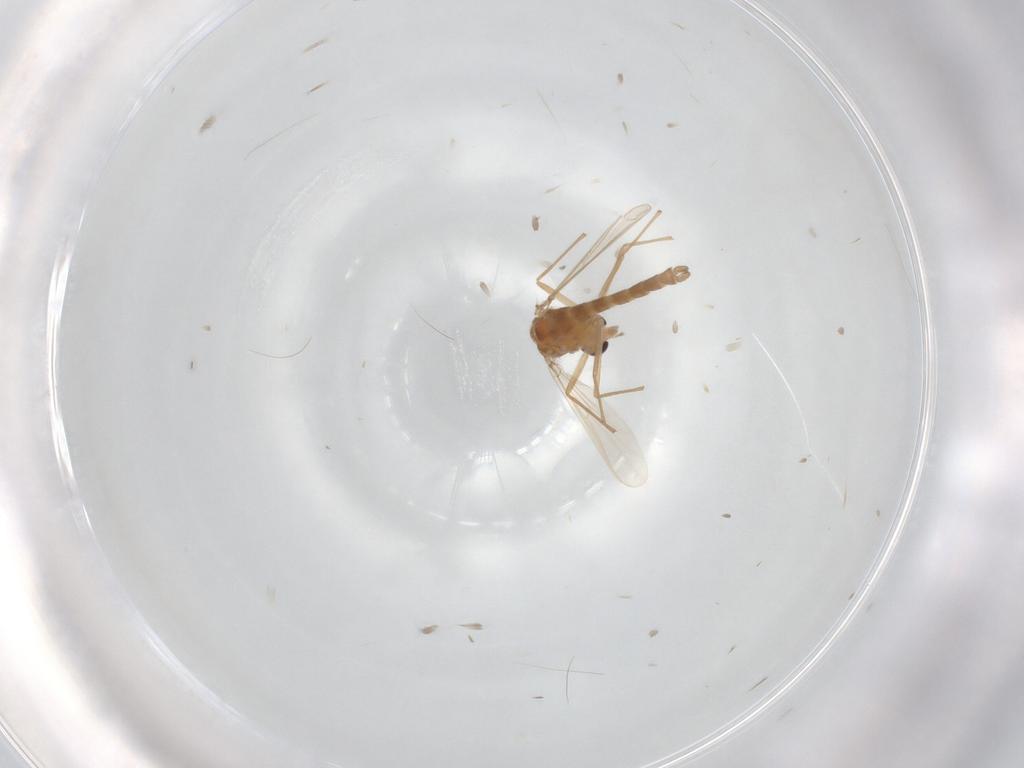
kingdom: Animalia
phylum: Arthropoda
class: Insecta
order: Diptera
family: Chironomidae
